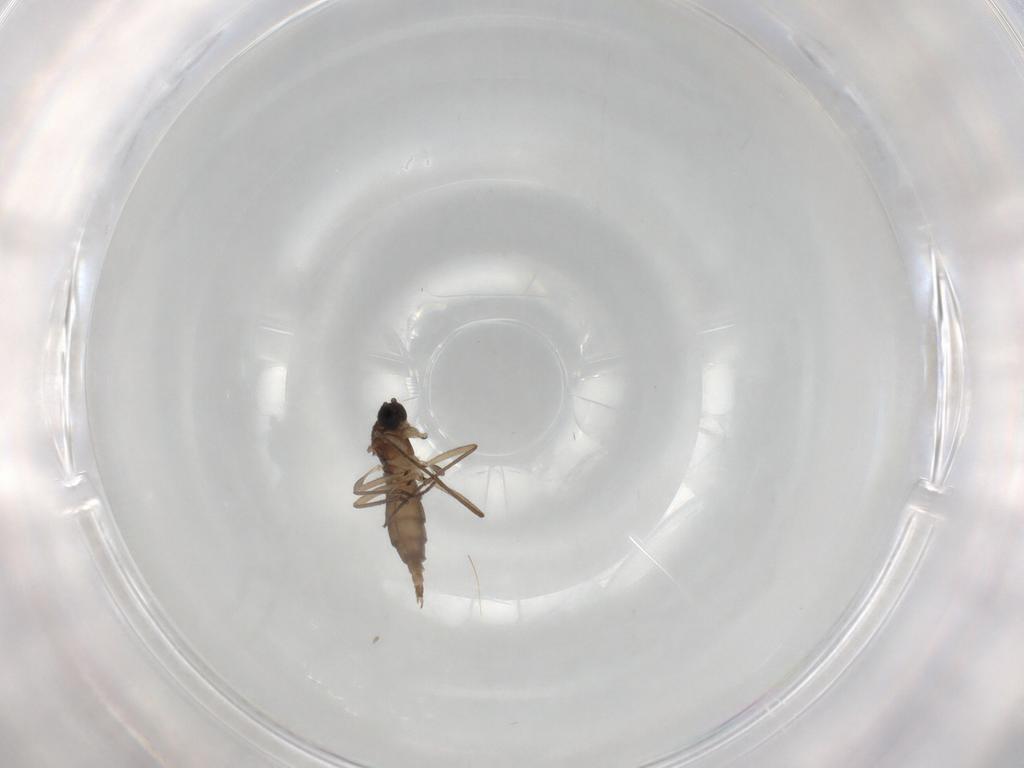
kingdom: Animalia
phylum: Arthropoda
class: Insecta
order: Diptera
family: Sciaridae
